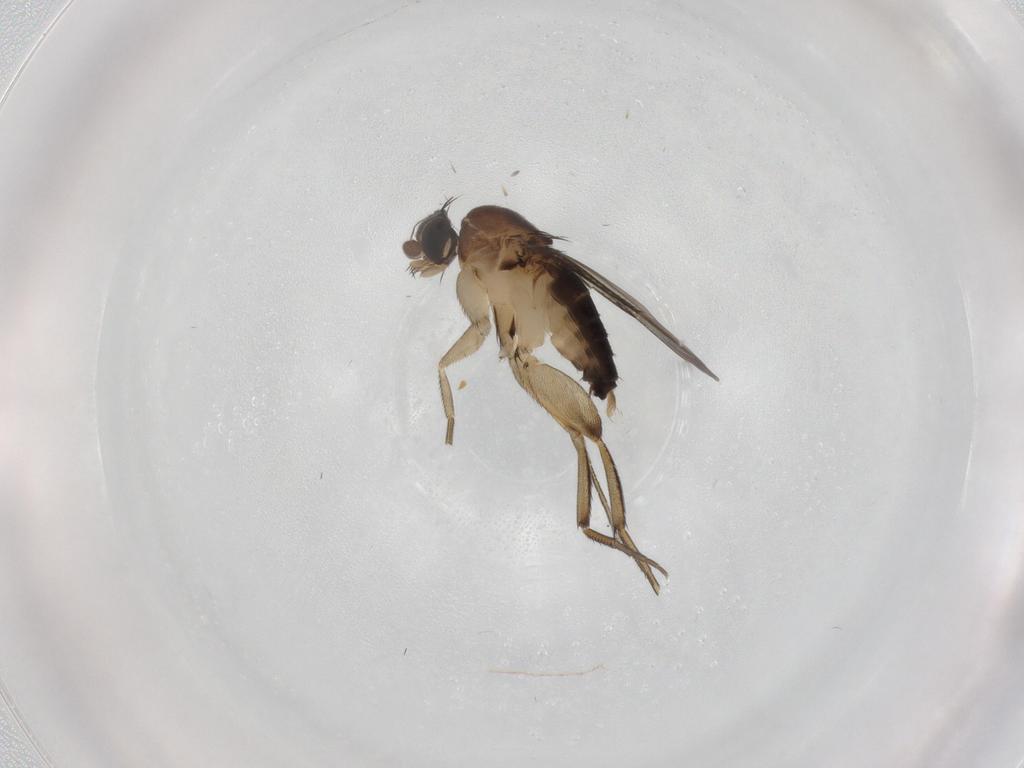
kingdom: Animalia
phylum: Arthropoda
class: Insecta
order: Diptera
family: Phoridae
